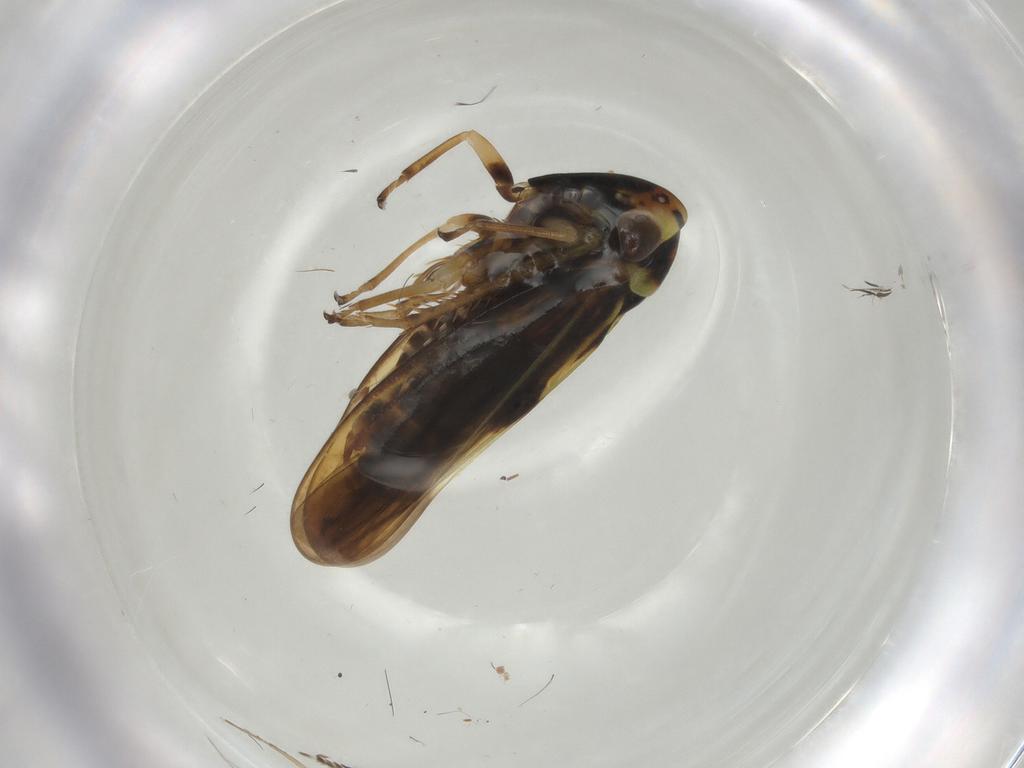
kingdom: Animalia
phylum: Arthropoda
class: Insecta
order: Hemiptera
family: Cicadellidae
